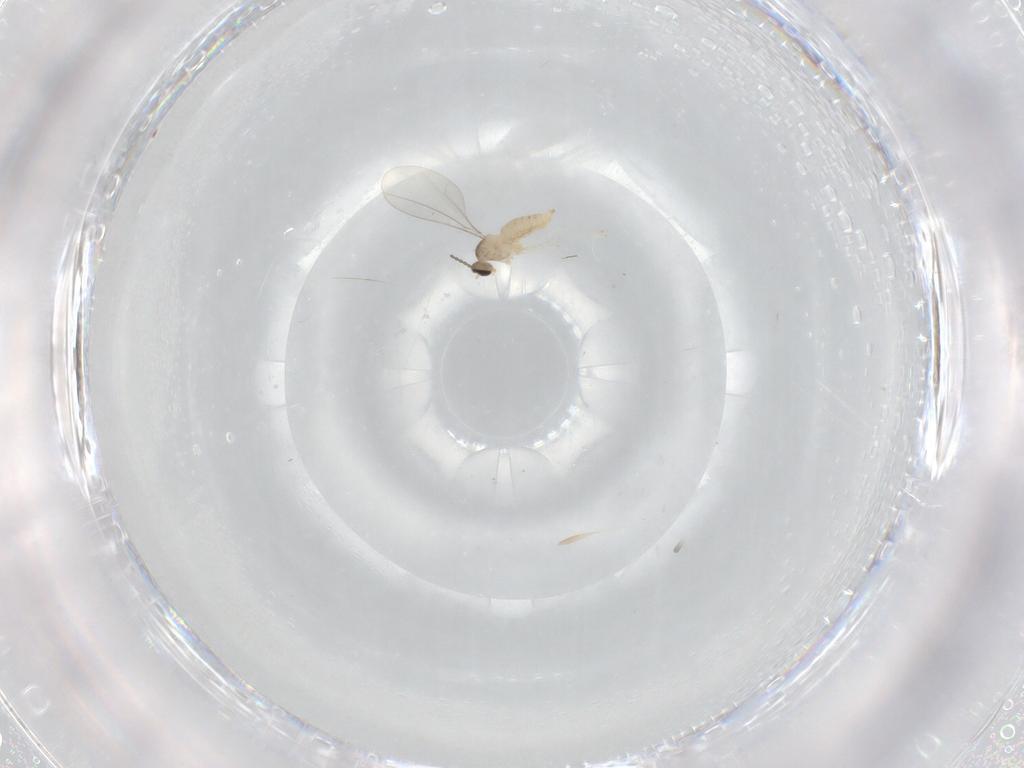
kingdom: Animalia
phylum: Arthropoda
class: Insecta
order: Diptera
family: Cecidomyiidae
